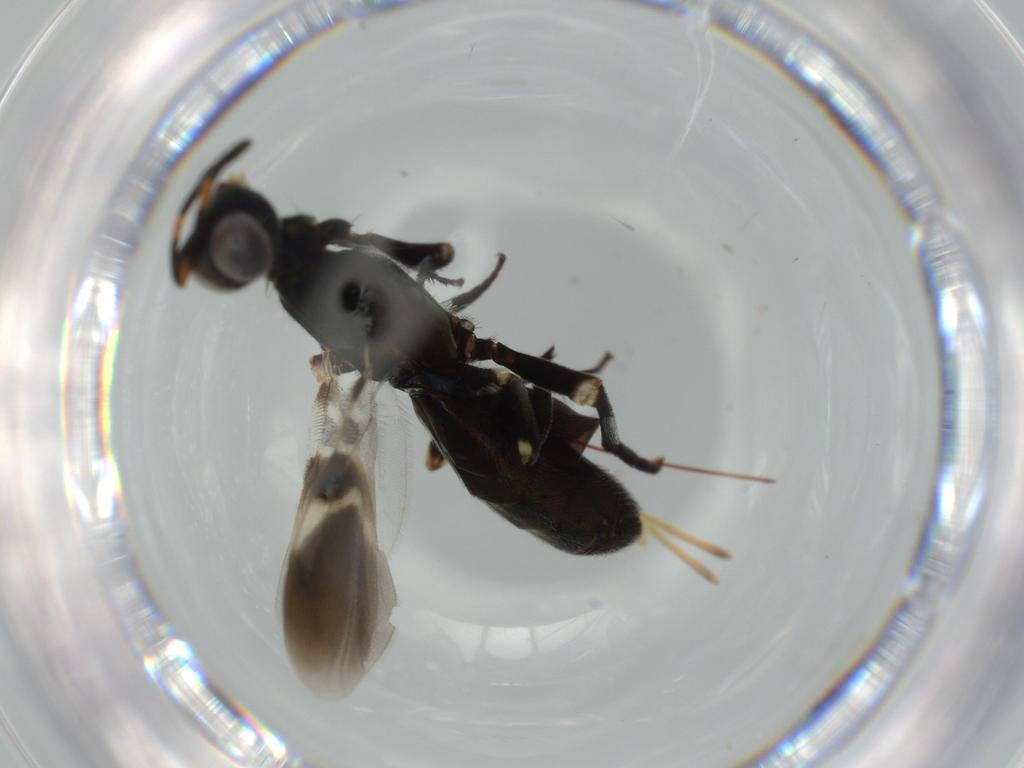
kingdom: Animalia
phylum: Arthropoda
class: Insecta
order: Hymenoptera
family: Eupelmidae
